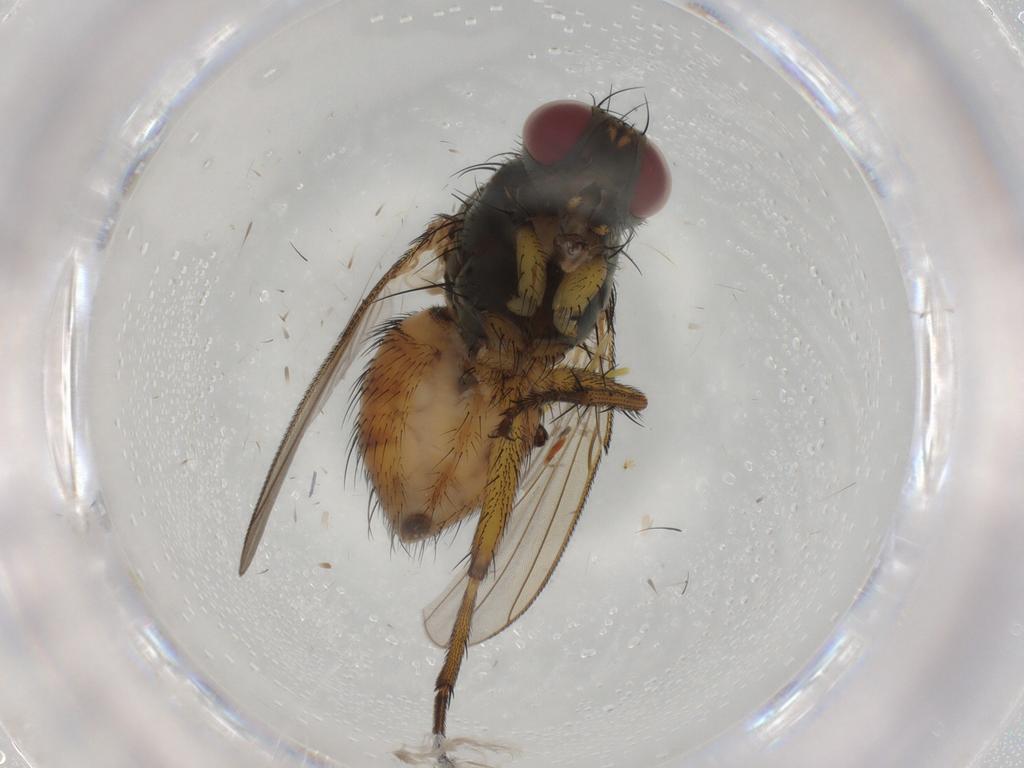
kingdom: Animalia
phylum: Arthropoda
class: Insecta
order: Diptera
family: Muscidae
